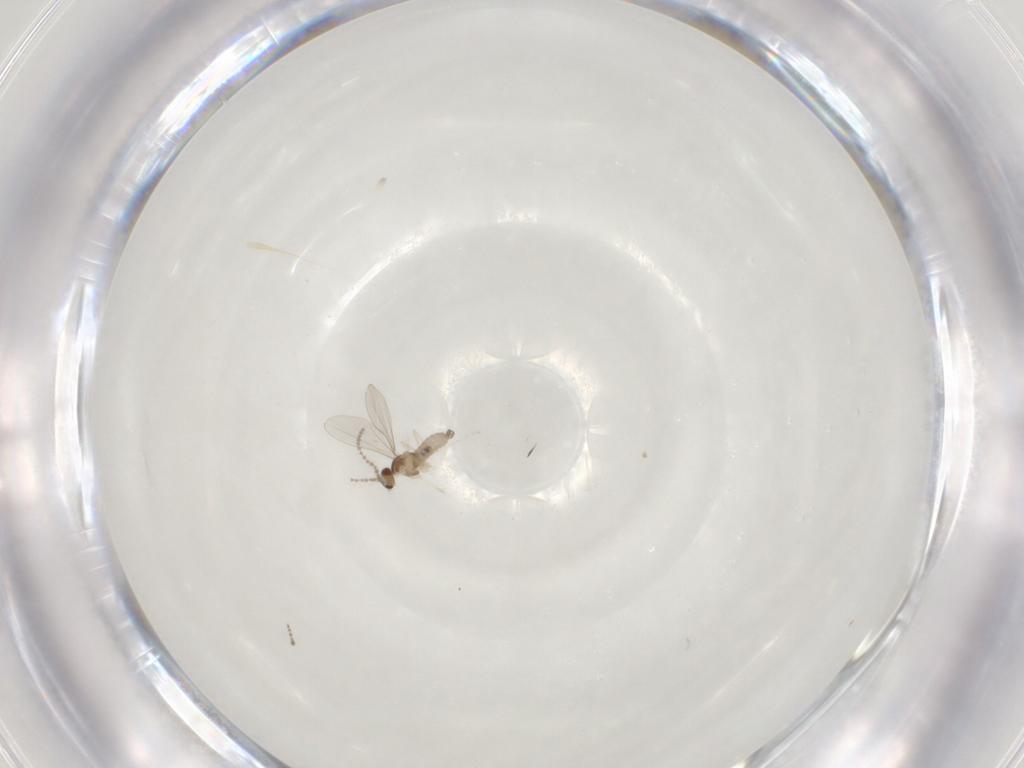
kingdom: Animalia
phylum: Arthropoda
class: Insecta
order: Diptera
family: Cecidomyiidae
